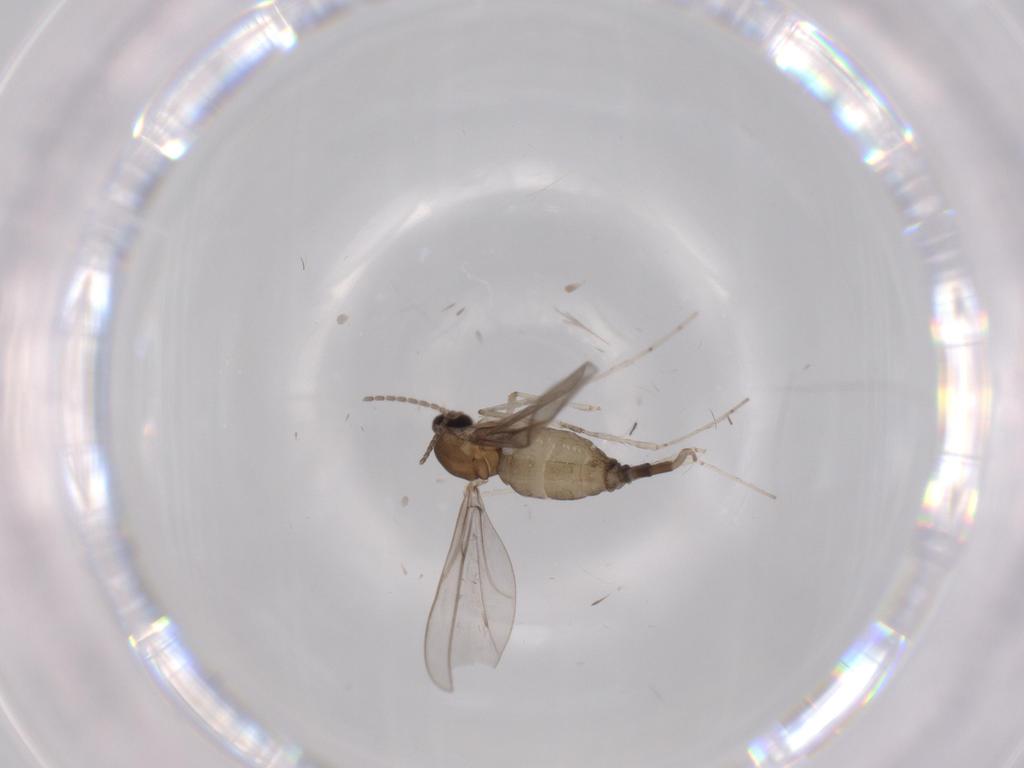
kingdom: Animalia
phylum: Arthropoda
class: Insecta
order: Diptera
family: Cecidomyiidae
